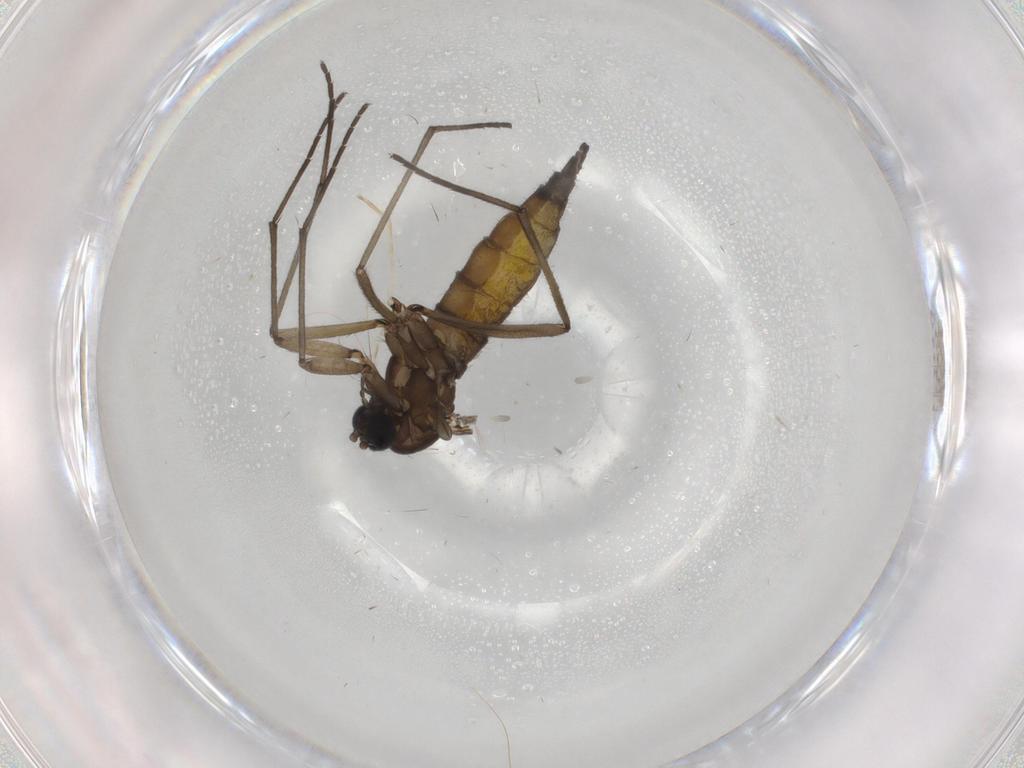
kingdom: Animalia
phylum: Arthropoda
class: Insecta
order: Diptera
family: Sciaridae
